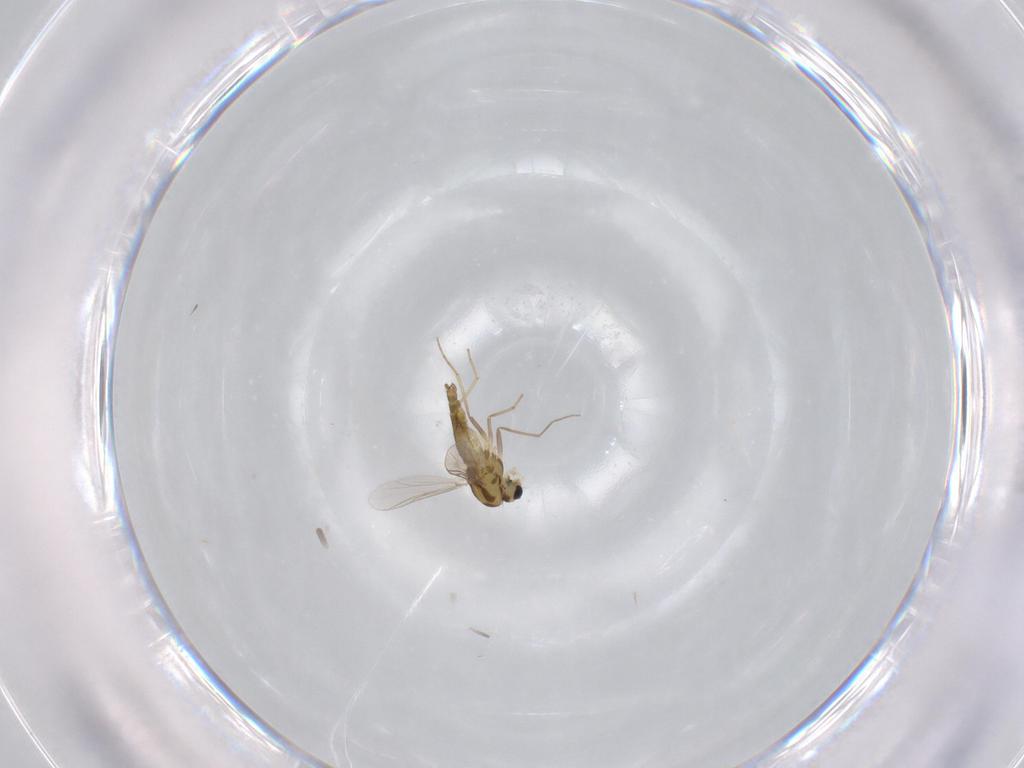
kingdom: Animalia
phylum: Arthropoda
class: Insecta
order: Diptera
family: Chironomidae
